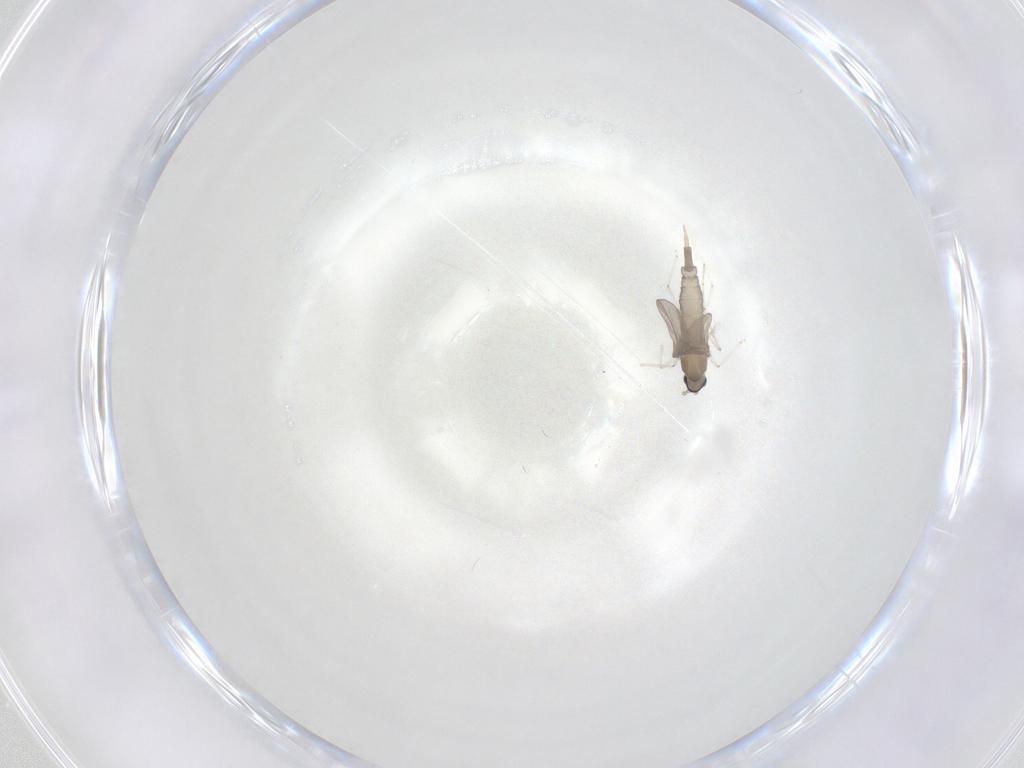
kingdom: Animalia
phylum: Arthropoda
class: Insecta
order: Diptera
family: Cecidomyiidae
